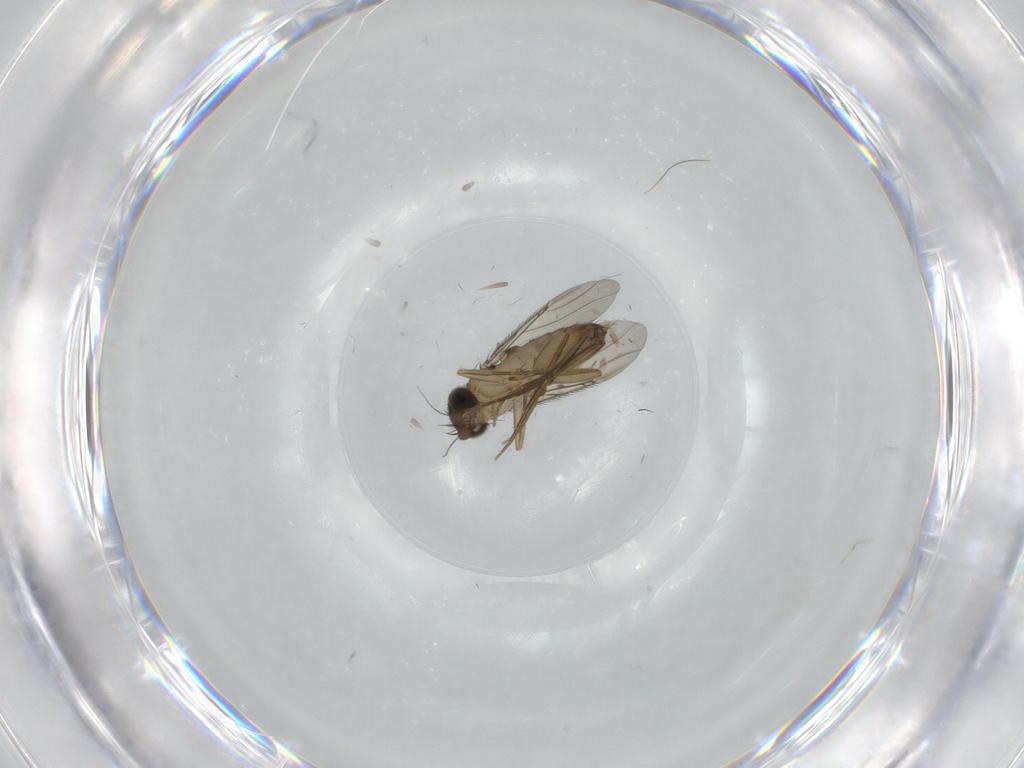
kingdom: Animalia
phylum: Arthropoda
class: Insecta
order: Diptera
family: Phoridae
